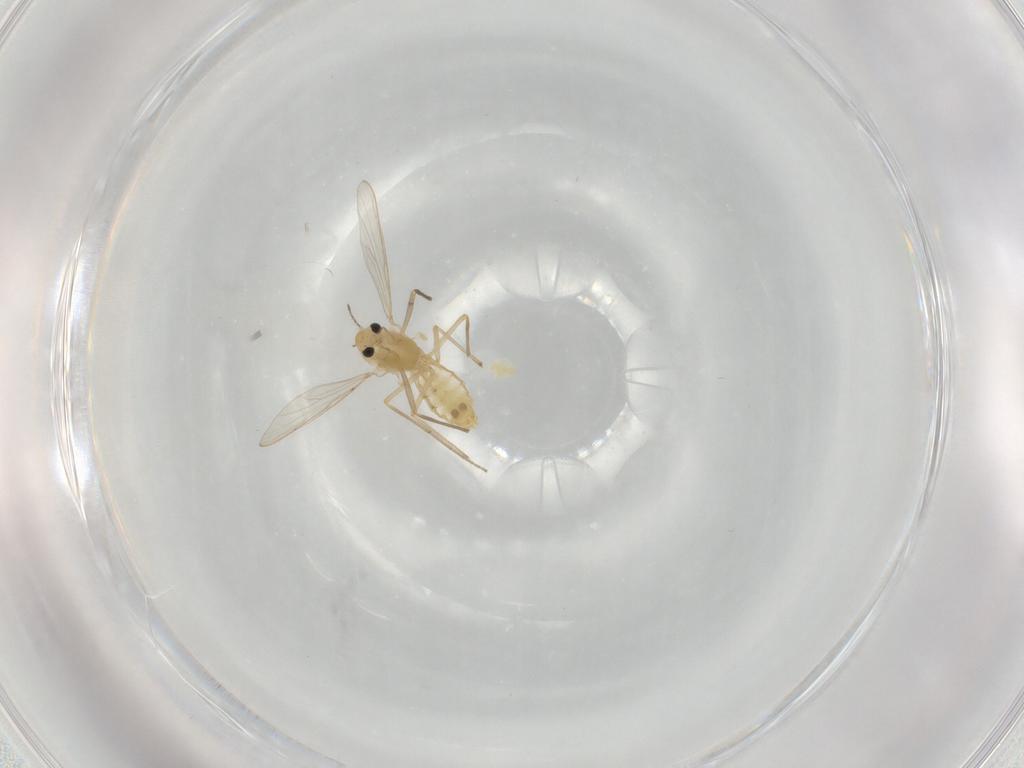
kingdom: Animalia
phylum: Arthropoda
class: Insecta
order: Diptera
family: Chironomidae
